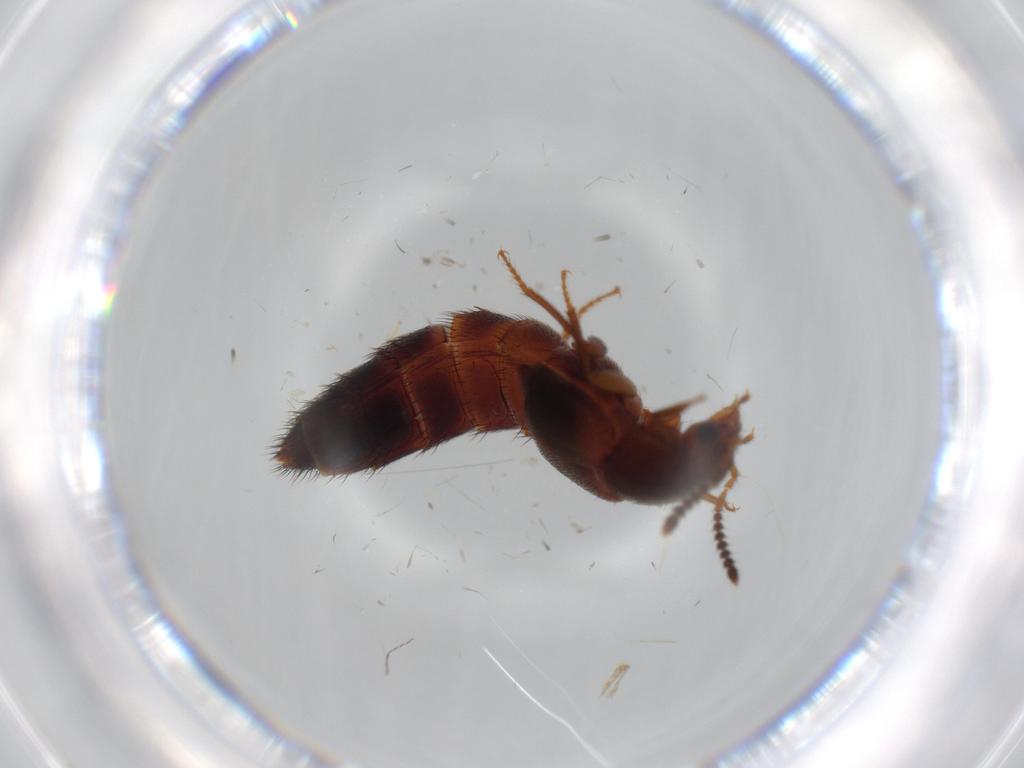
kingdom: Animalia
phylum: Arthropoda
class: Insecta
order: Coleoptera
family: Staphylinidae
